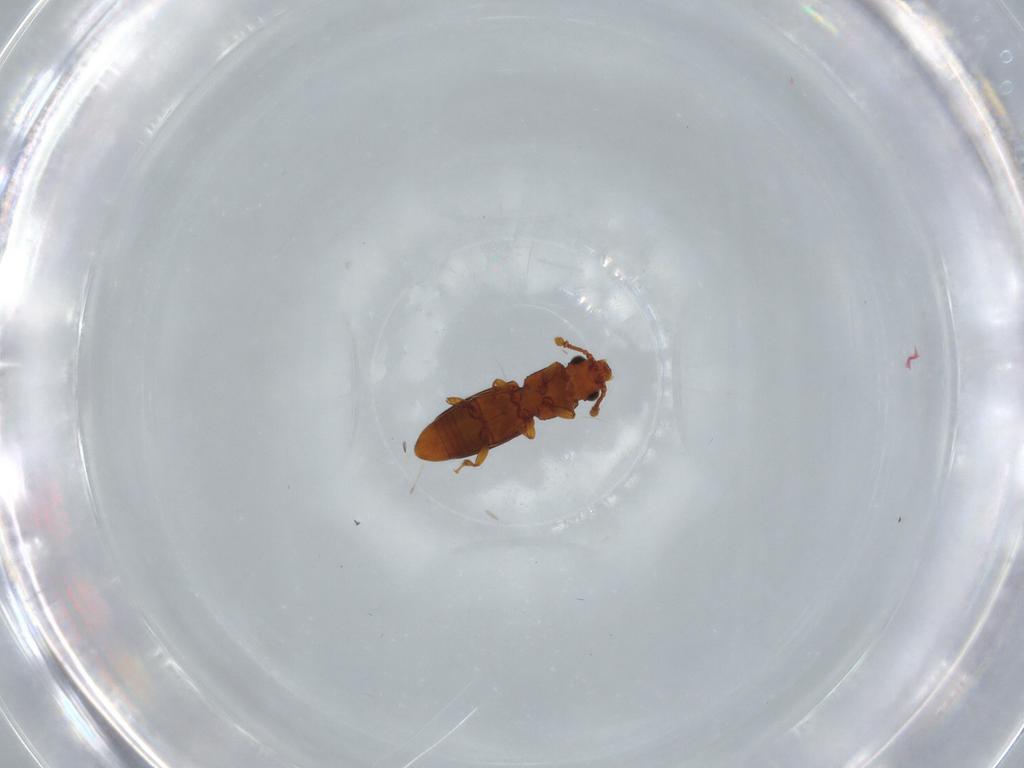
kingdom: Animalia
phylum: Arthropoda
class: Insecta
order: Coleoptera
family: Monotomidae
